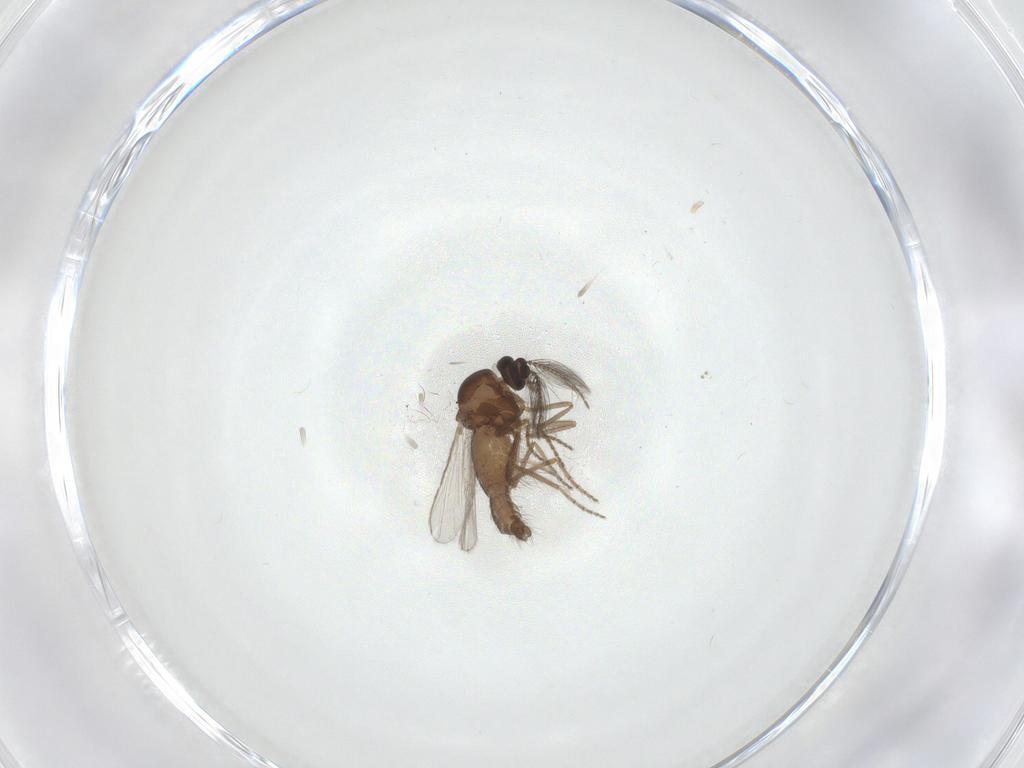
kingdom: Animalia
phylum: Arthropoda
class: Insecta
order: Diptera
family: Ceratopogonidae
